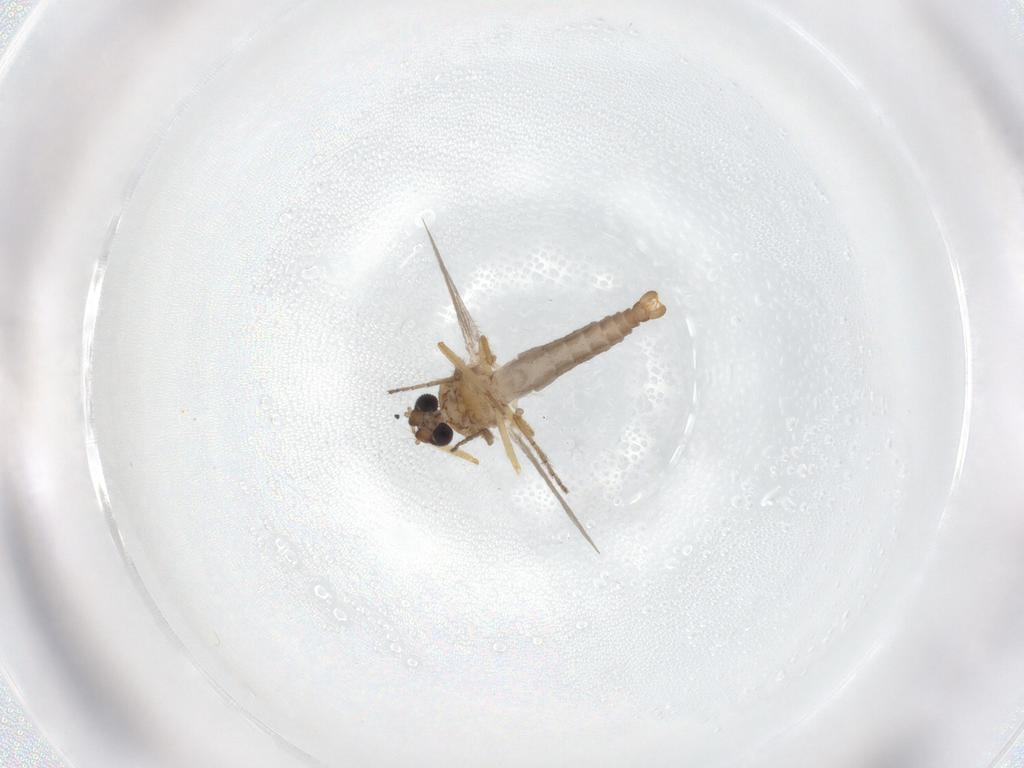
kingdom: Animalia
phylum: Arthropoda
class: Insecta
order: Diptera
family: Ceratopogonidae
